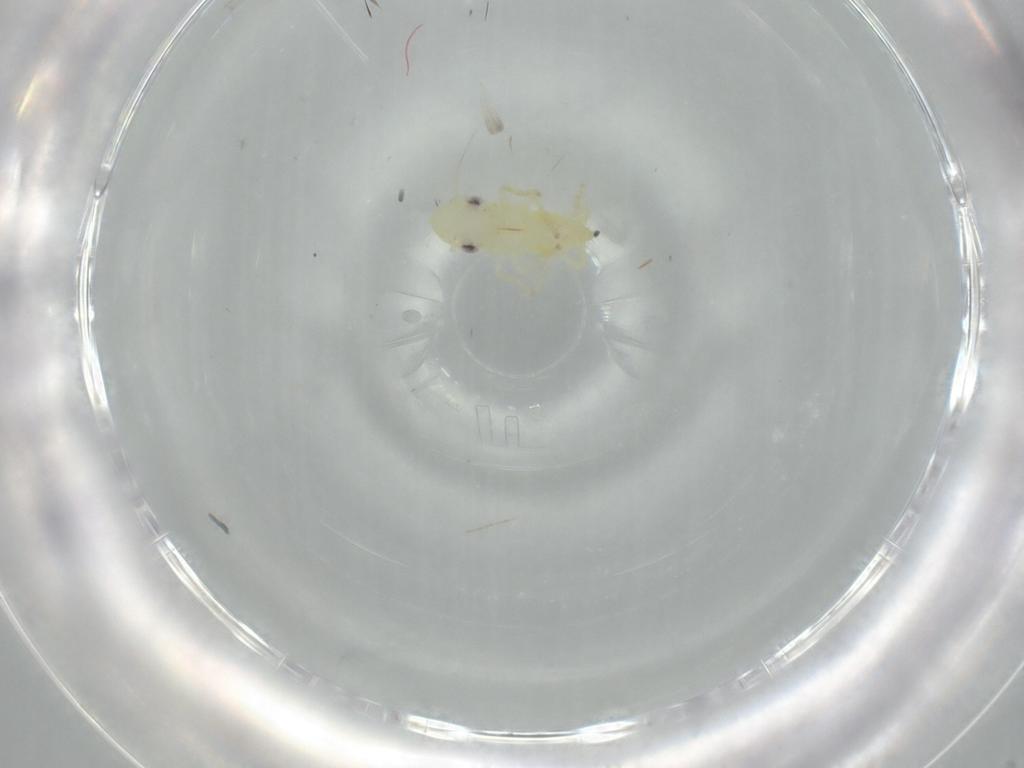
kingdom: Animalia
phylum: Arthropoda
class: Insecta
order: Hemiptera
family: Cicadellidae
